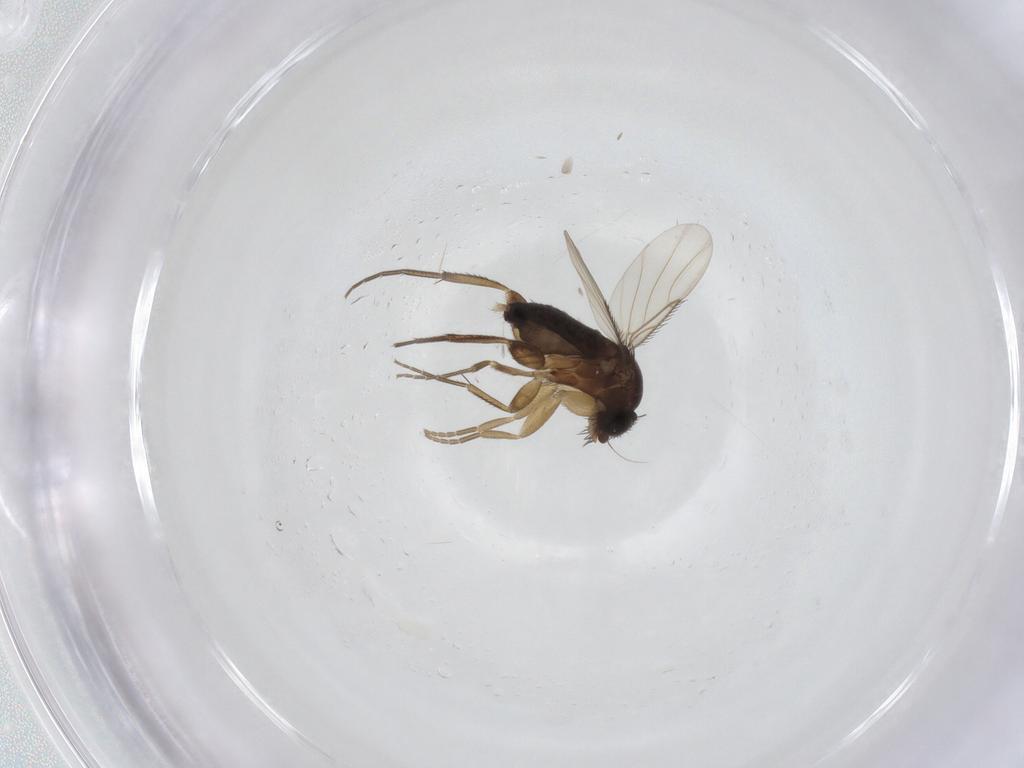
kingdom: Animalia
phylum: Arthropoda
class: Insecta
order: Diptera
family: Phoridae
